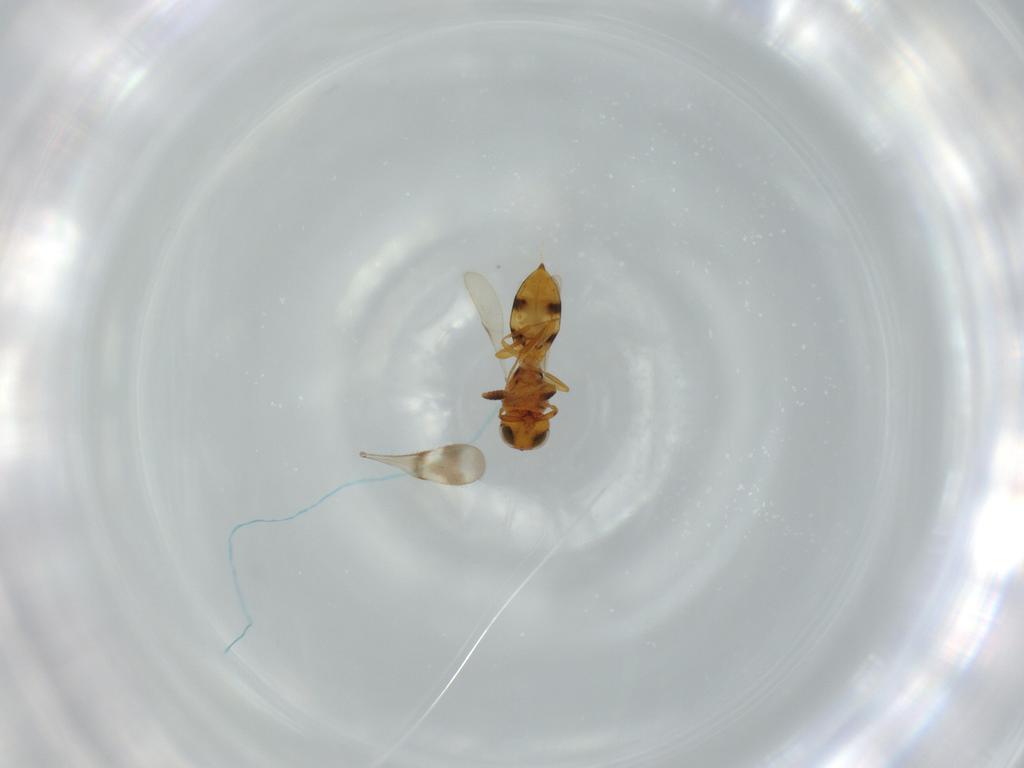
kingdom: Animalia
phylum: Arthropoda
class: Insecta
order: Hymenoptera
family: Scelionidae
